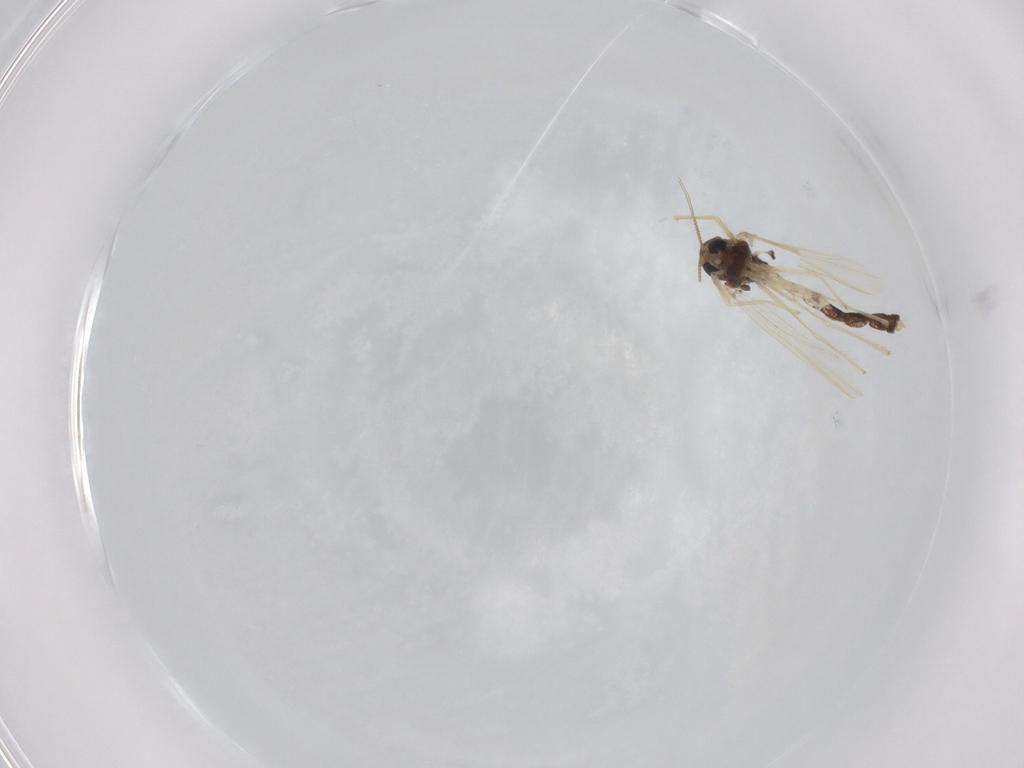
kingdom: Animalia
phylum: Arthropoda
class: Insecta
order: Diptera
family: Chironomidae
